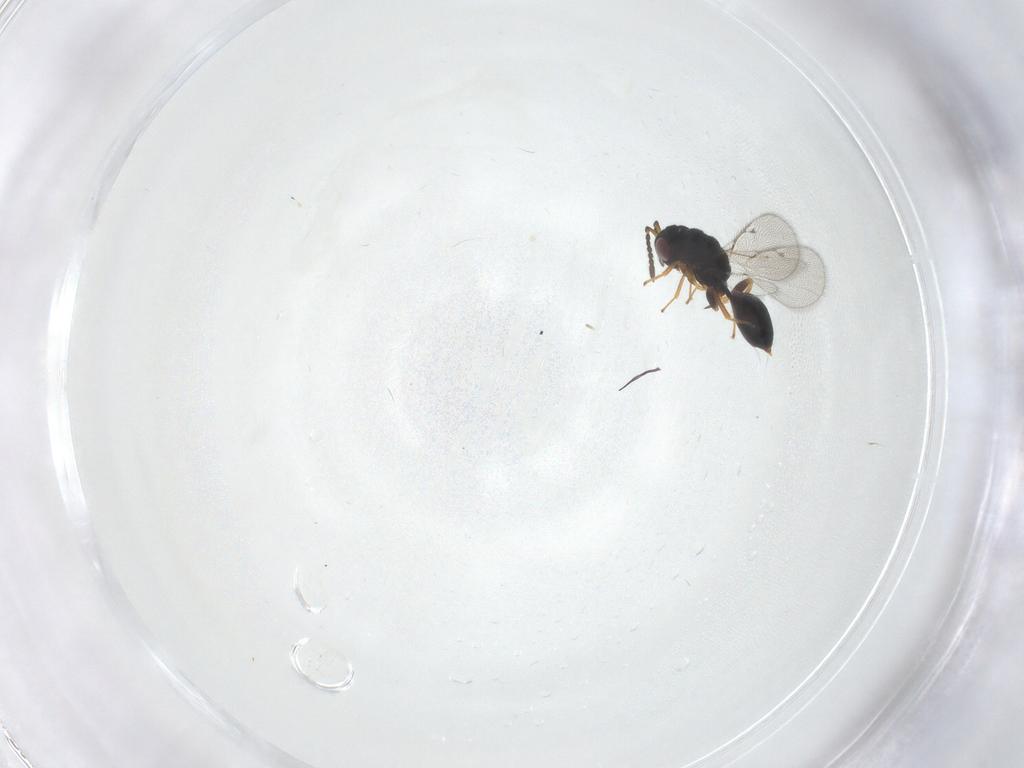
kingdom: Animalia
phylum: Arthropoda
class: Insecta
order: Hymenoptera
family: Eurytomidae
